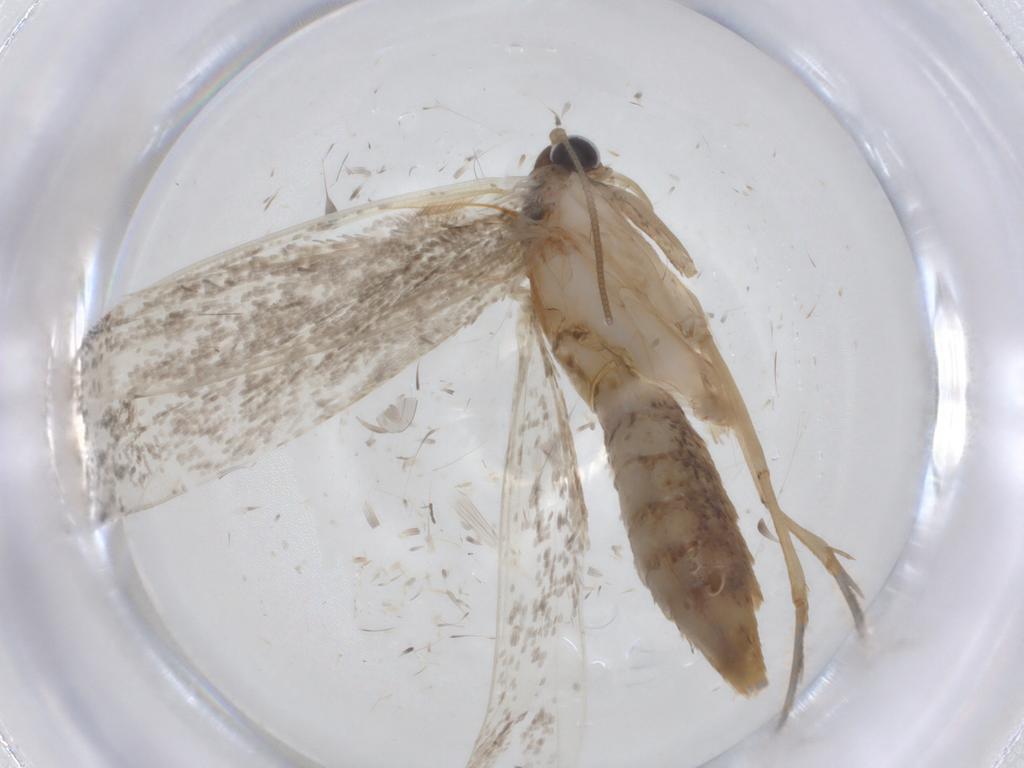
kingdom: Animalia
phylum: Arthropoda
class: Insecta
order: Lepidoptera
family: Tineidae
